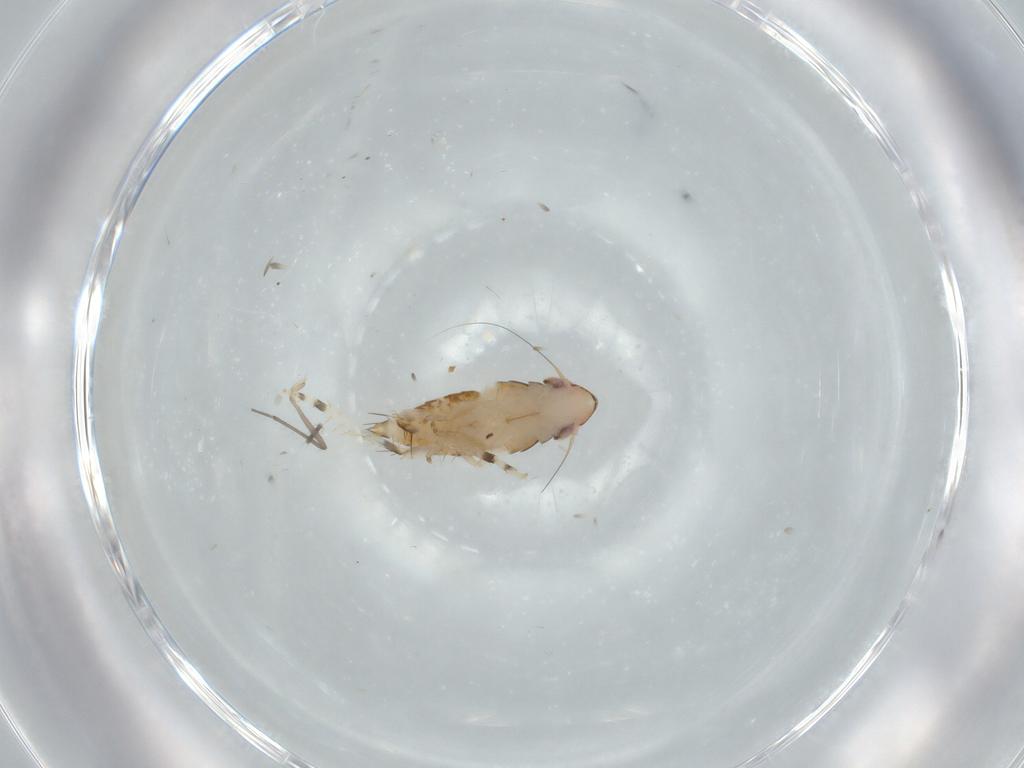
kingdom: Animalia
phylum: Arthropoda
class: Insecta
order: Hemiptera
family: Cicadellidae
